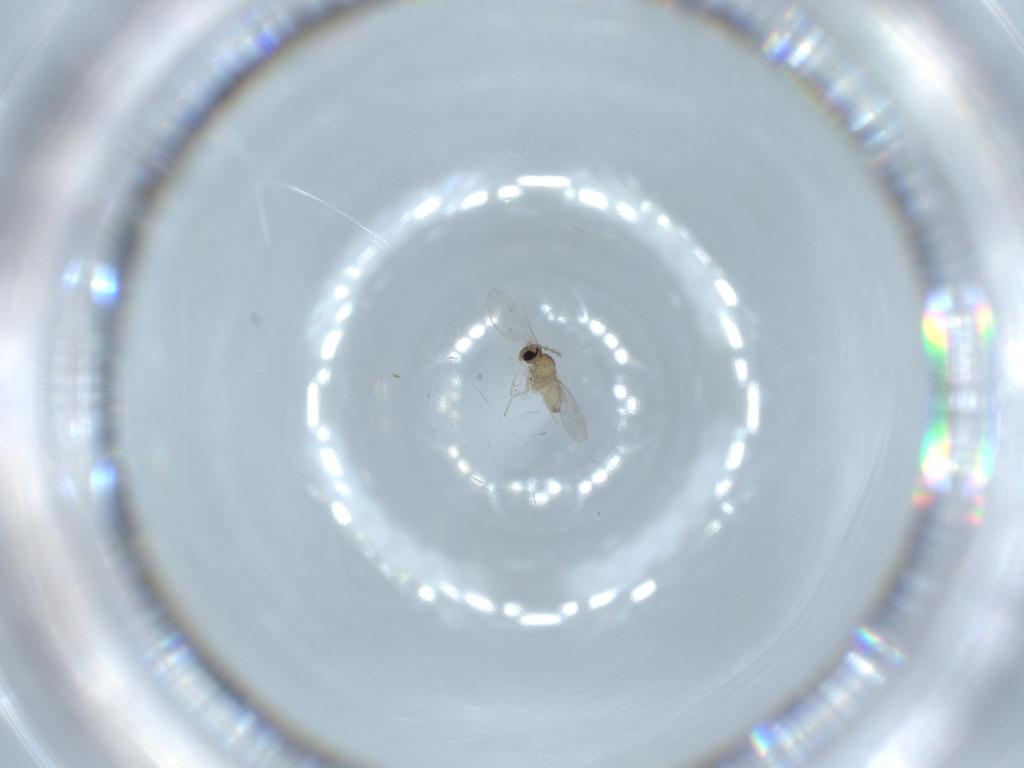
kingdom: Animalia
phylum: Arthropoda
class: Insecta
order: Diptera
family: Cecidomyiidae
